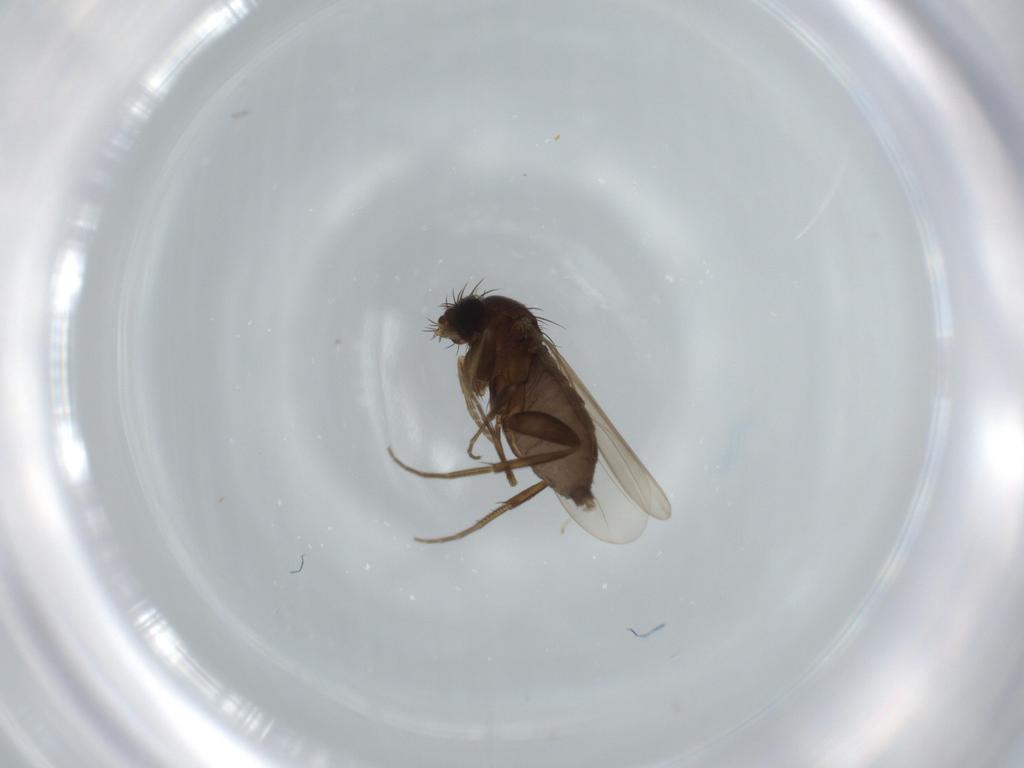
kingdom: Animalia
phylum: Arthropoda
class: Insecta
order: Diptera
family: Phoridae
